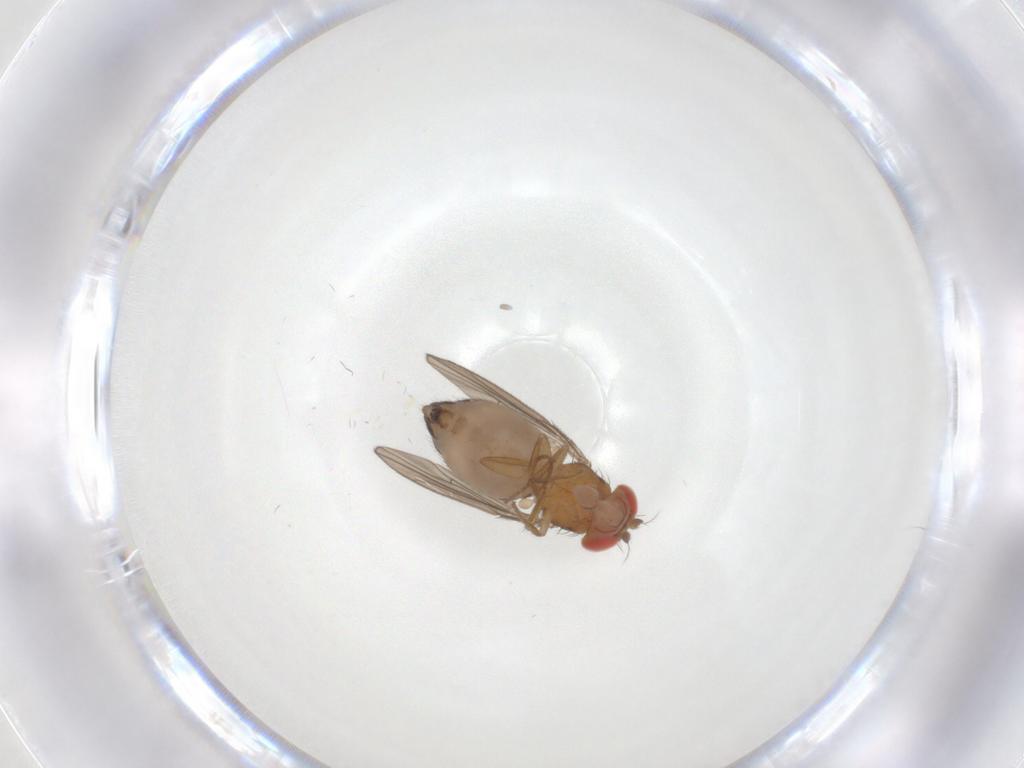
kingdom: Animalia
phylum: Arthropoda
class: Insecta
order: Diptera
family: Drosophilidae
